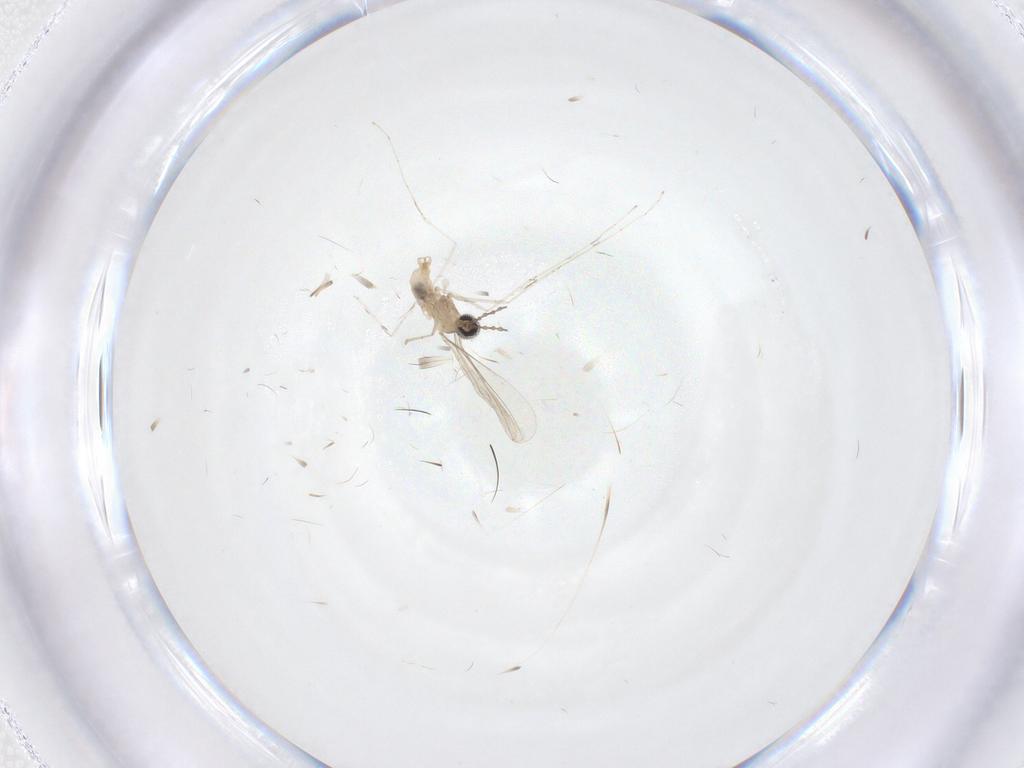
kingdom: Animalia
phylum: Arthropoda
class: Insecta
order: Diptera
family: Cecidomyiidae
